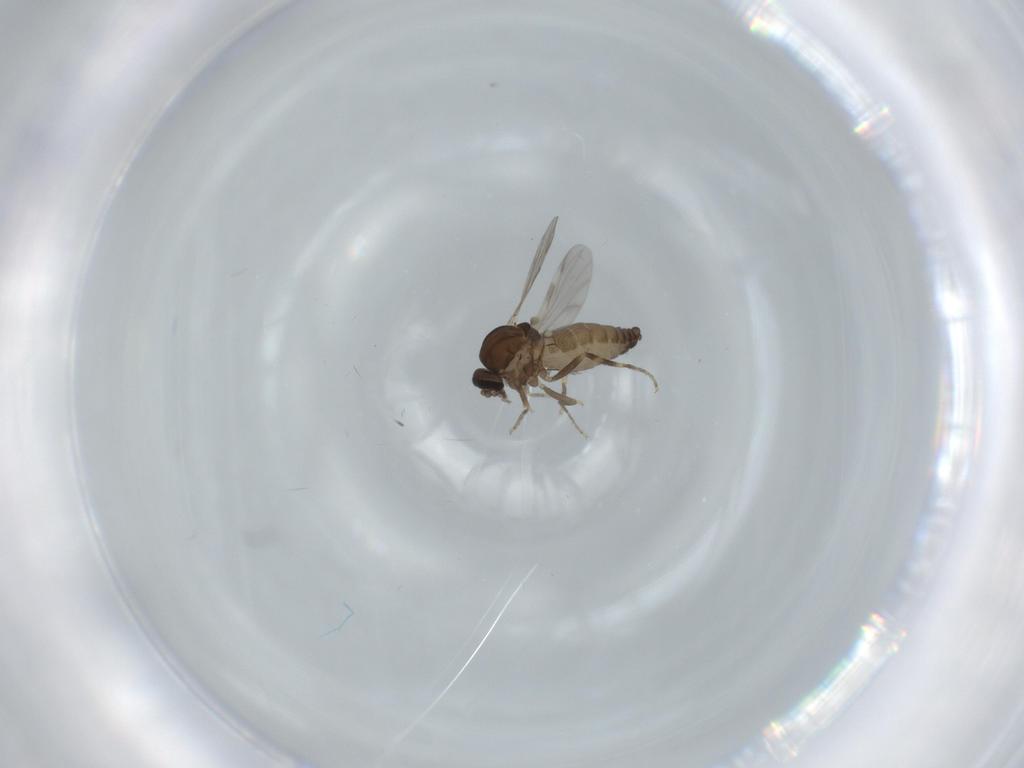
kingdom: Animalia
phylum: Arthropoda
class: Insecta
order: Diptera
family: Ceratopogonidae
